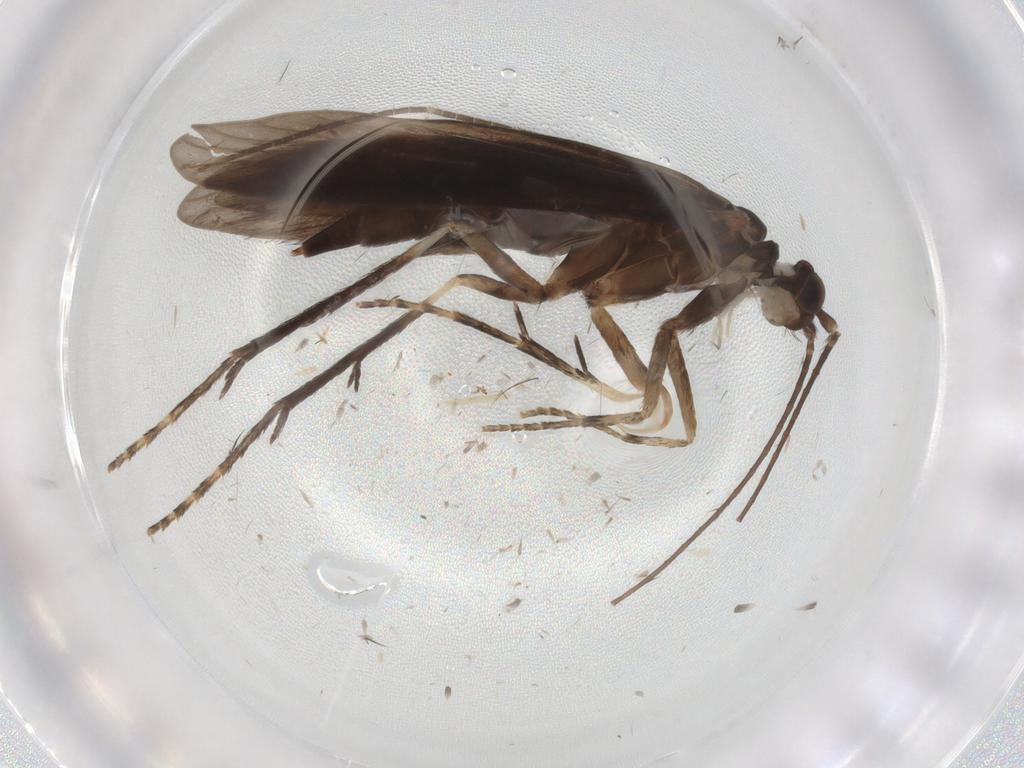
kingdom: Animalia
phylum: Arthropoda
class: Insecta
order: Trichoptera
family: Xiphocentronidae
